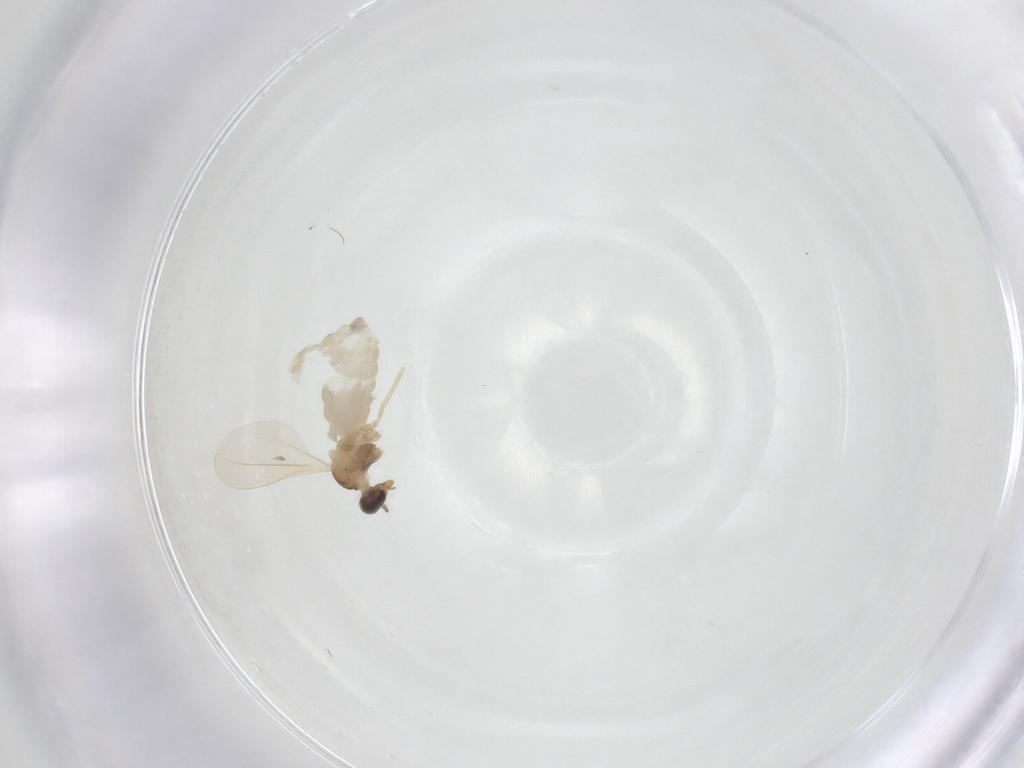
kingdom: Animalia
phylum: Arthropoda
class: Insecta
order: Diptera
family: Cecidomyiidae
